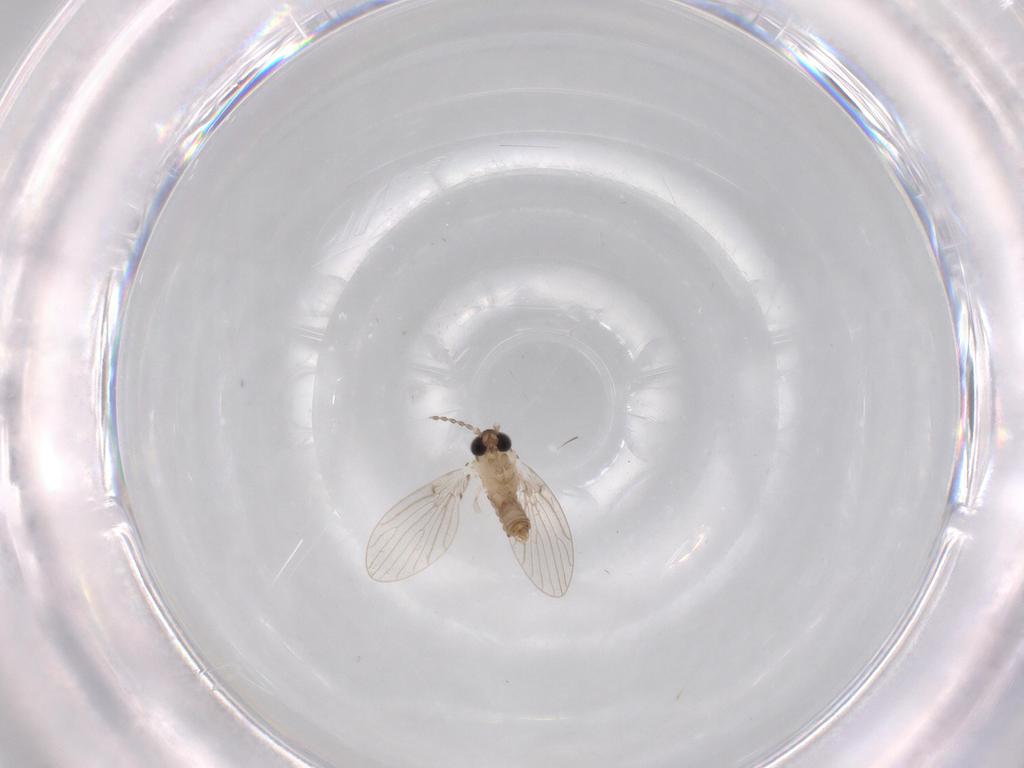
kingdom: Animalia
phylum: Arthropoda
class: Insecta
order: Diptera
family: Psychodidae
